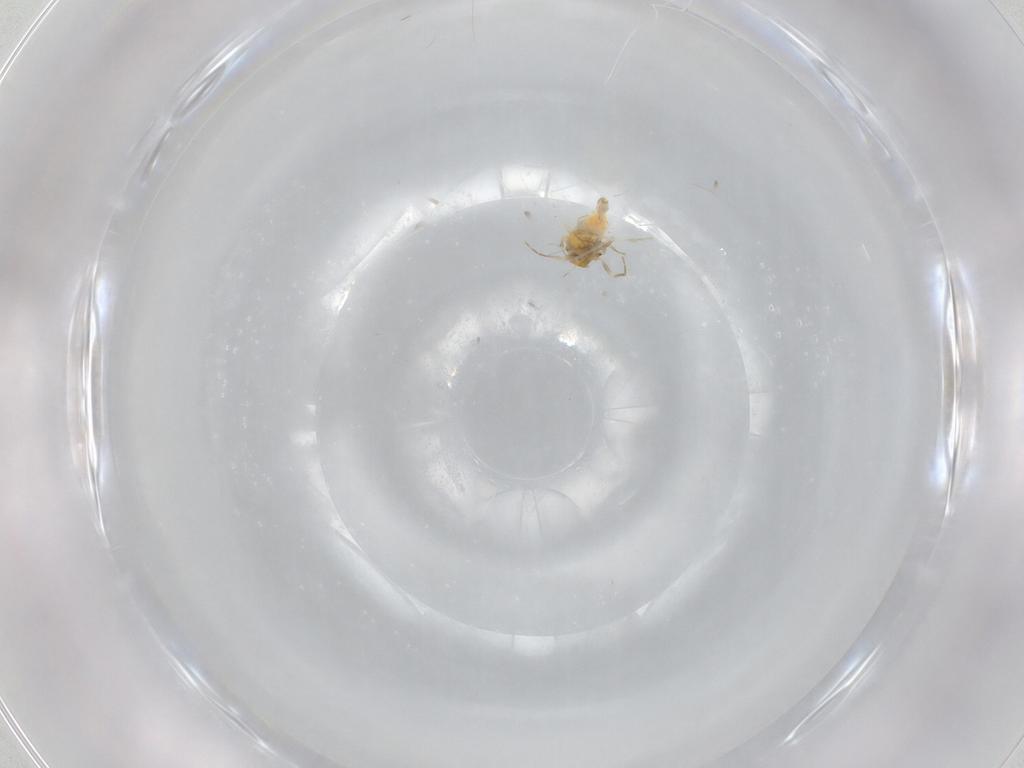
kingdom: Animalia
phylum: Arthropoda
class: Insecta
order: Hemiptera
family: Aleyrodidae
